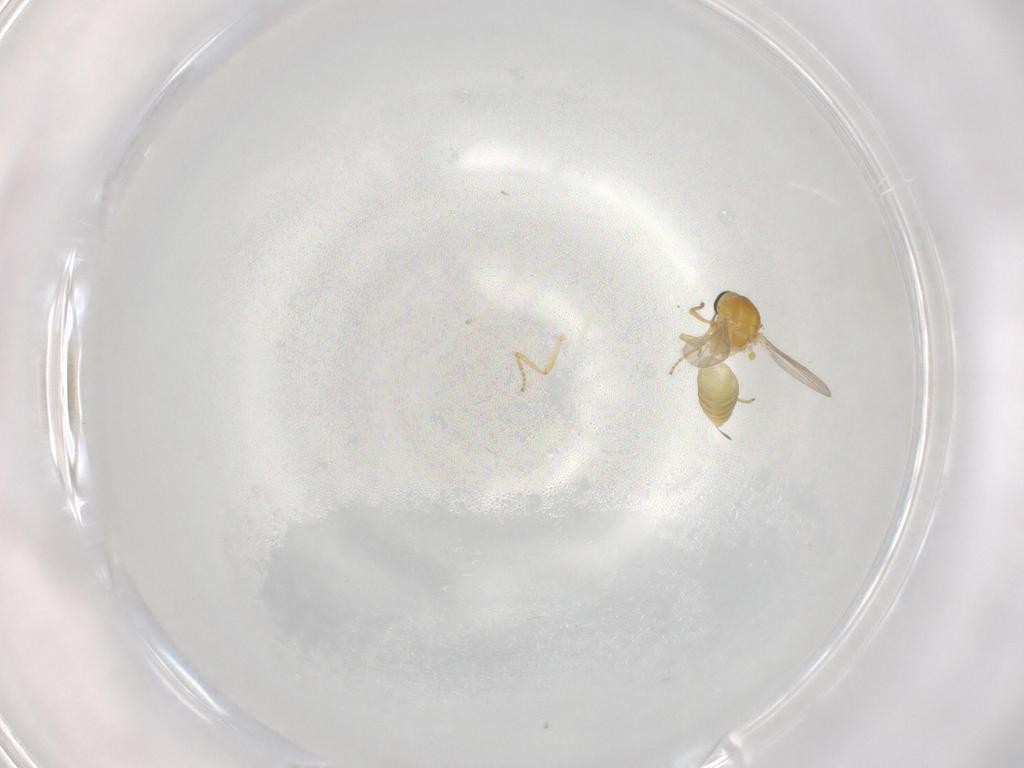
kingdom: Animalia
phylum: Arthropoda
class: Insecta
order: Diptera
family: Ceratopogonidae
